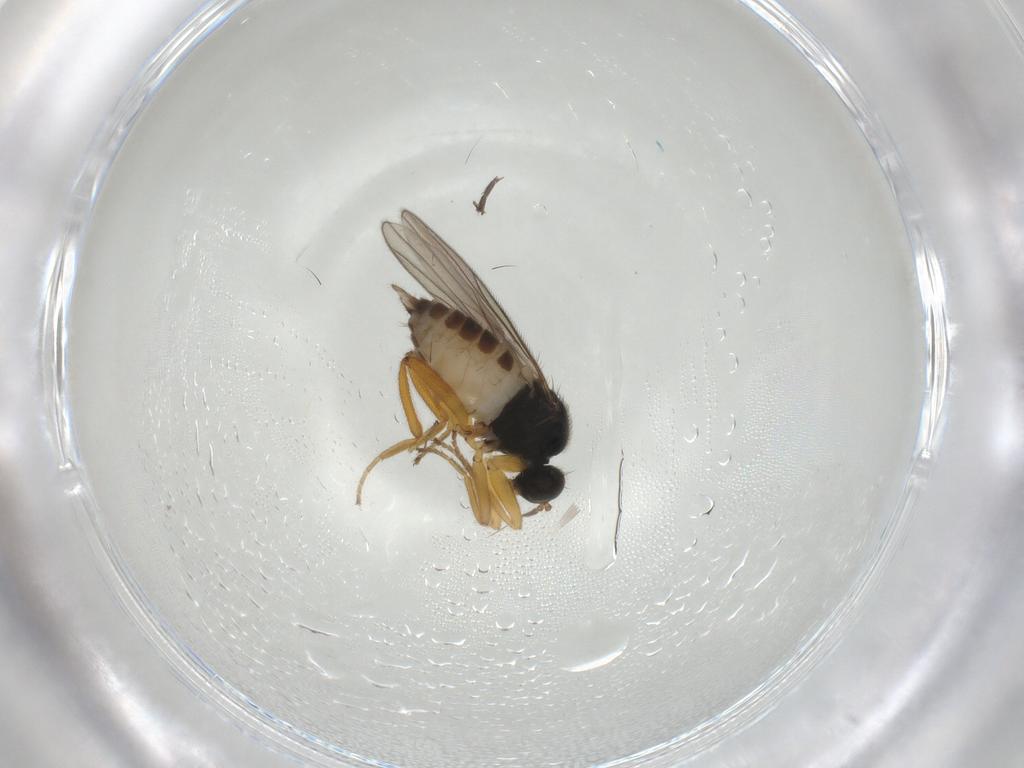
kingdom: Animalia
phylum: Arthropoda
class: Insecta
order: Diptera
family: Hybotidae
